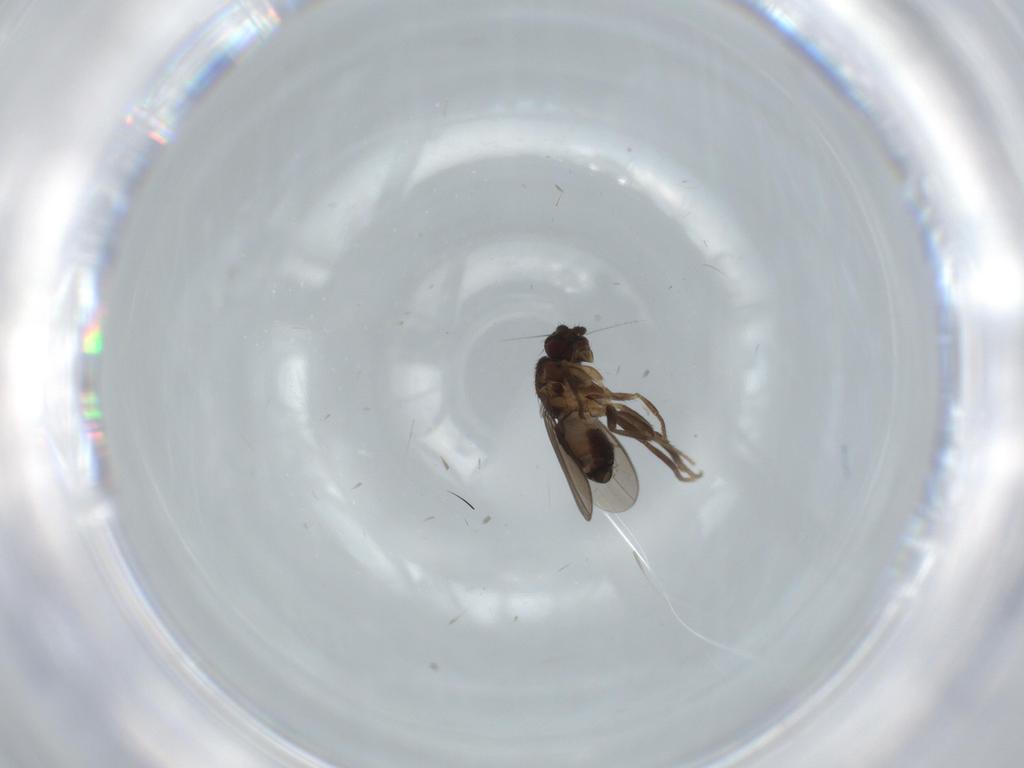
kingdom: Animalia
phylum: Arthropoda
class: Insecta
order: Diptera
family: Sphaeroceridae
